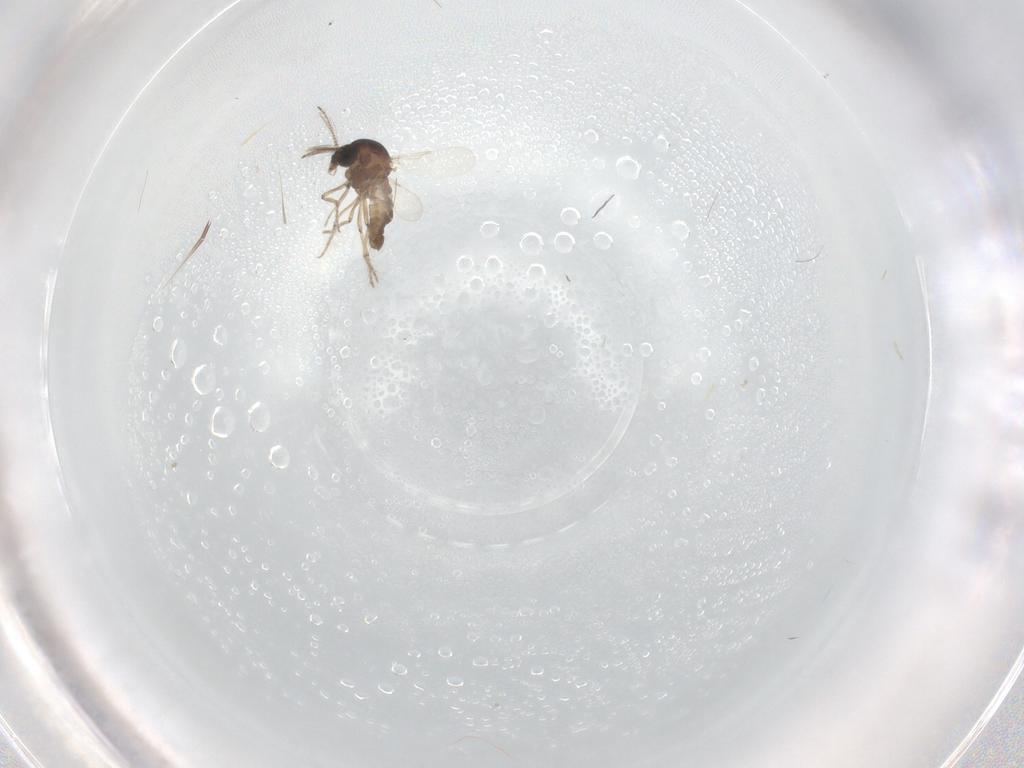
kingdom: Animalia
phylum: Arthropoda
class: Insecta
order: Diptera
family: Ceratopogonidae
